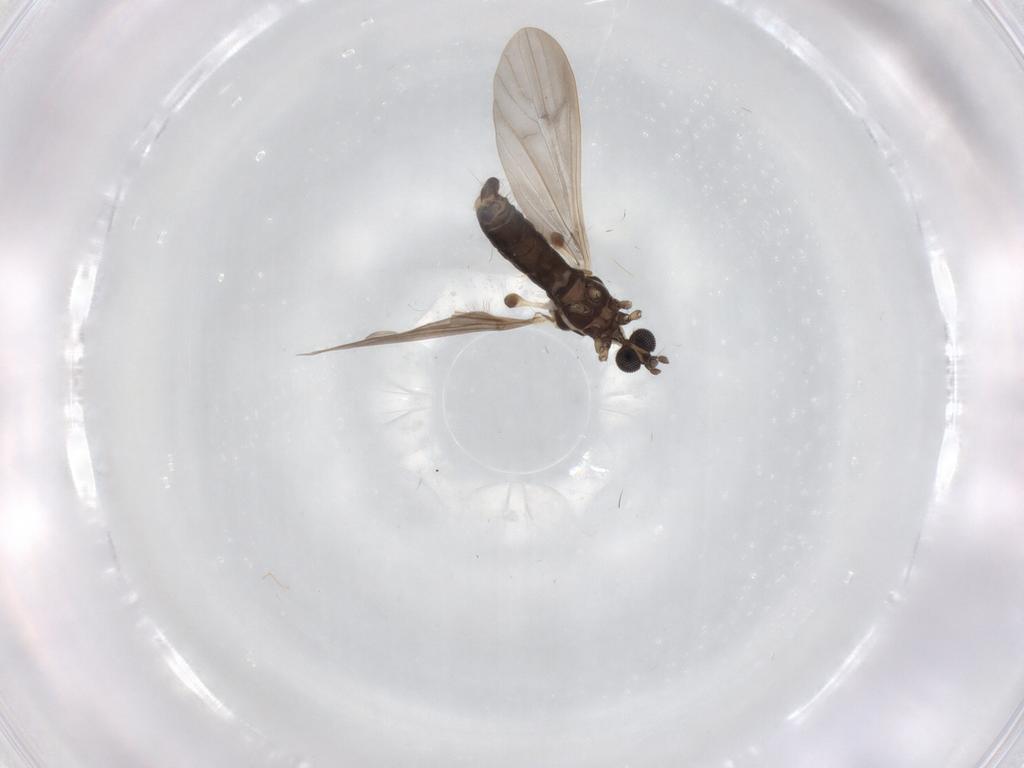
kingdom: Animalia
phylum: Arthropoda
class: Insecta
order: Diptera
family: Limoniidae
